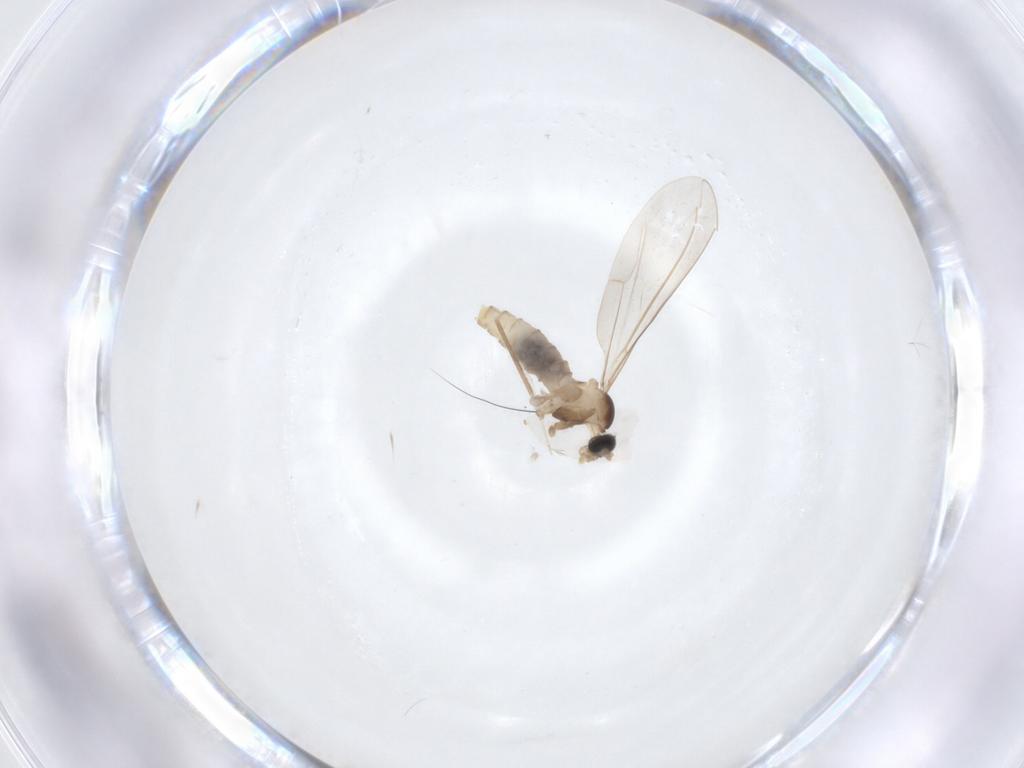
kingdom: Animalia
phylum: Arthropoda
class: Insecta
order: Diptera
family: Cecidomyiidae
